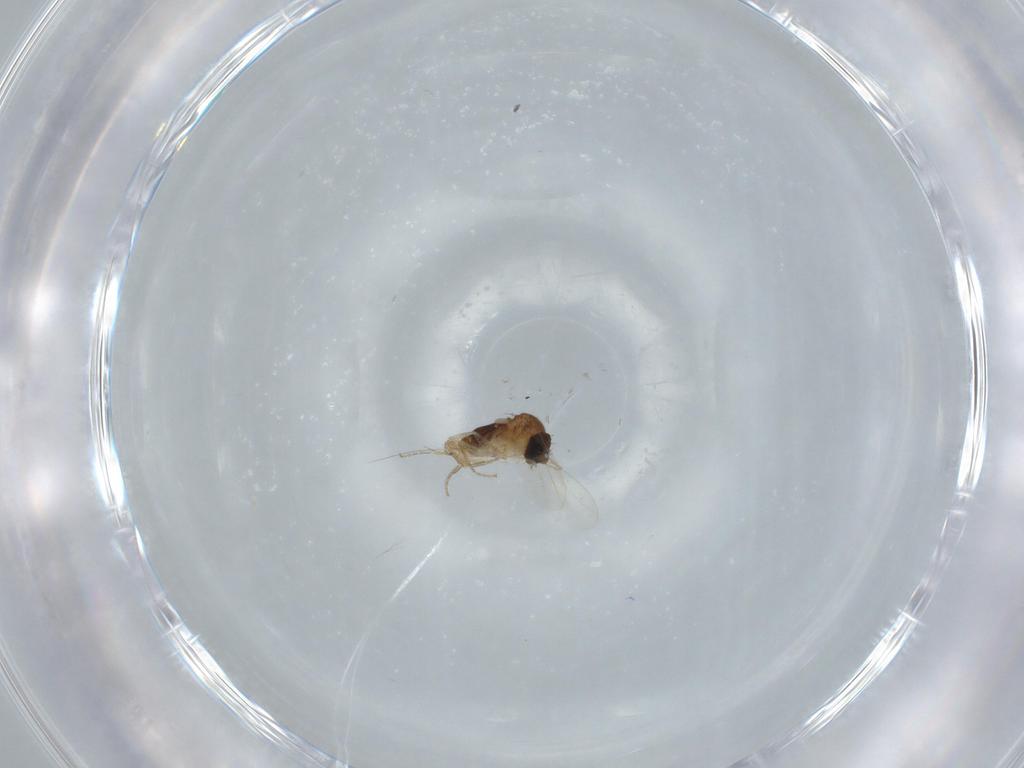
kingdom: Animalia
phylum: Arthropoda
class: Insecta
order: Diptera
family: Phoridae
